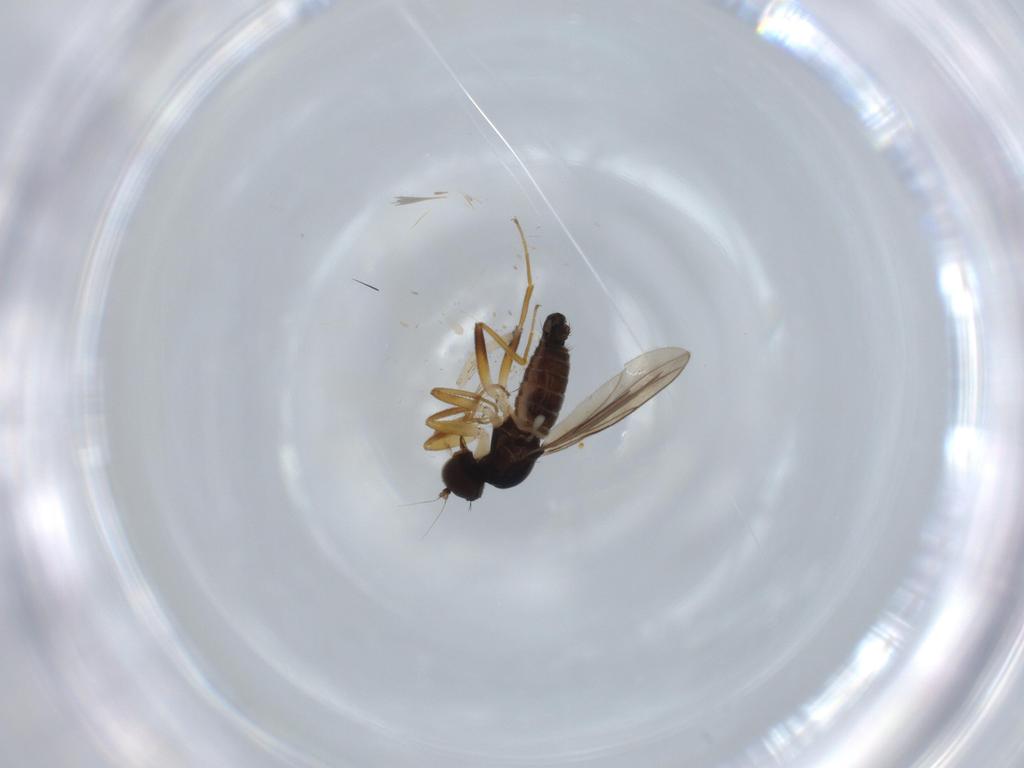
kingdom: Animalia
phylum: Arthropoda
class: Insecta
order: Diptera
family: Hybotidae
